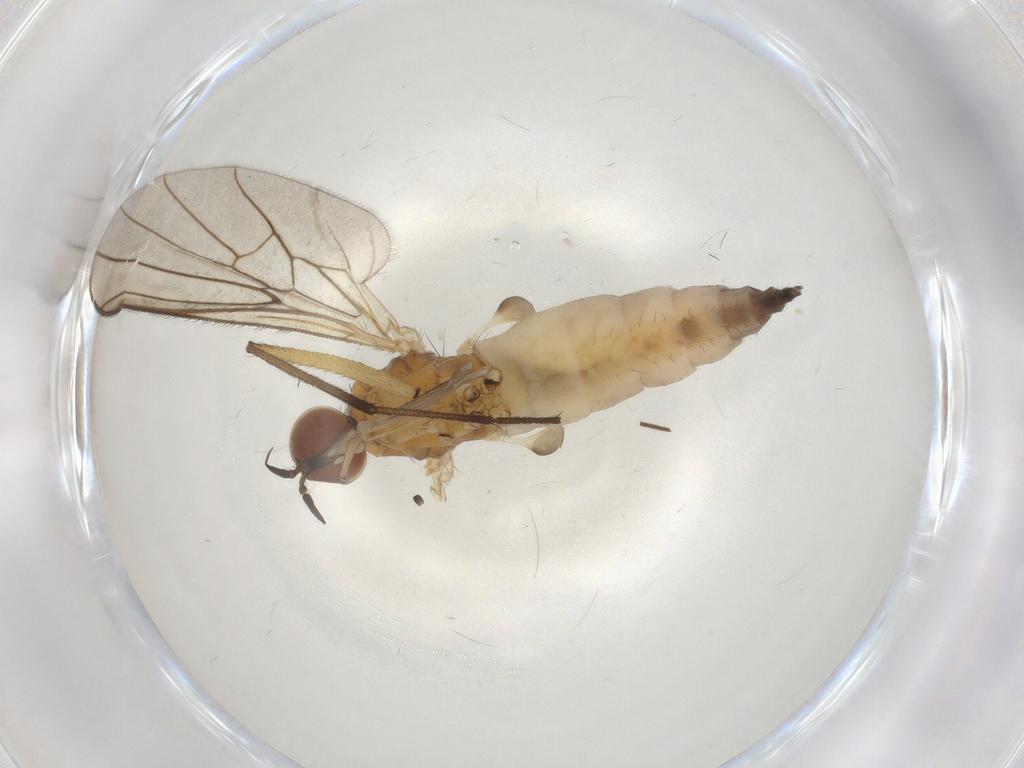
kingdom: Animalia
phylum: Arthropoda
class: Insecta
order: Diptera
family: Empididae
